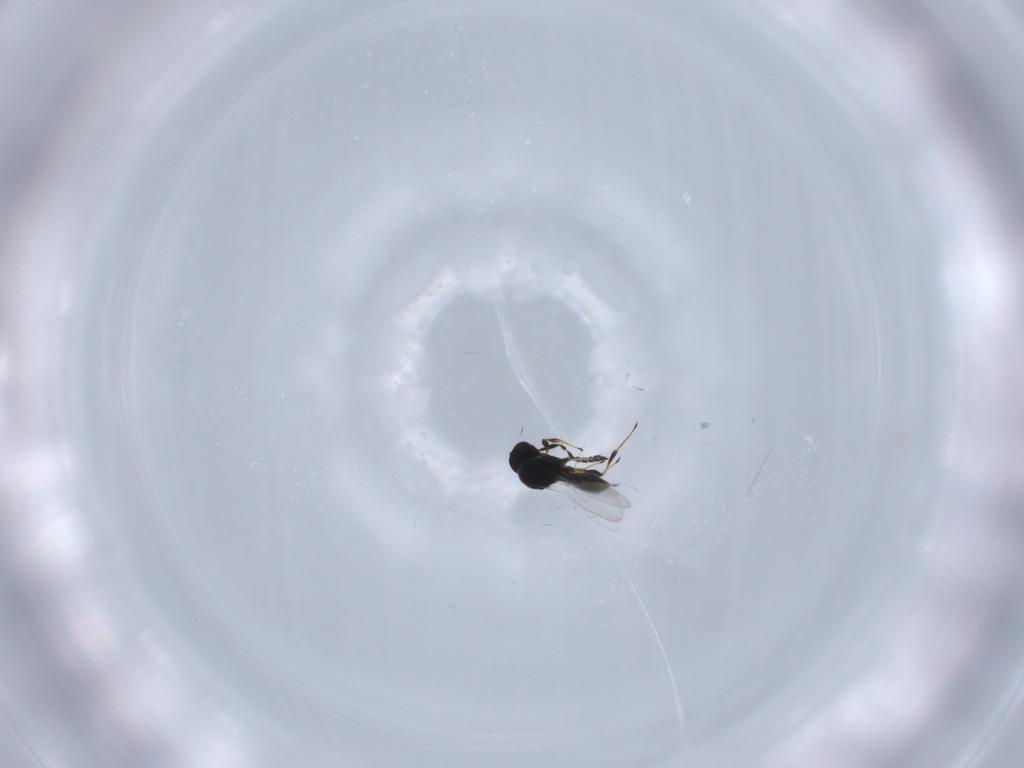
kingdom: Animalia
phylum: Arthropoda
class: Insecta
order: Hymenoptera
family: Platygastridae
